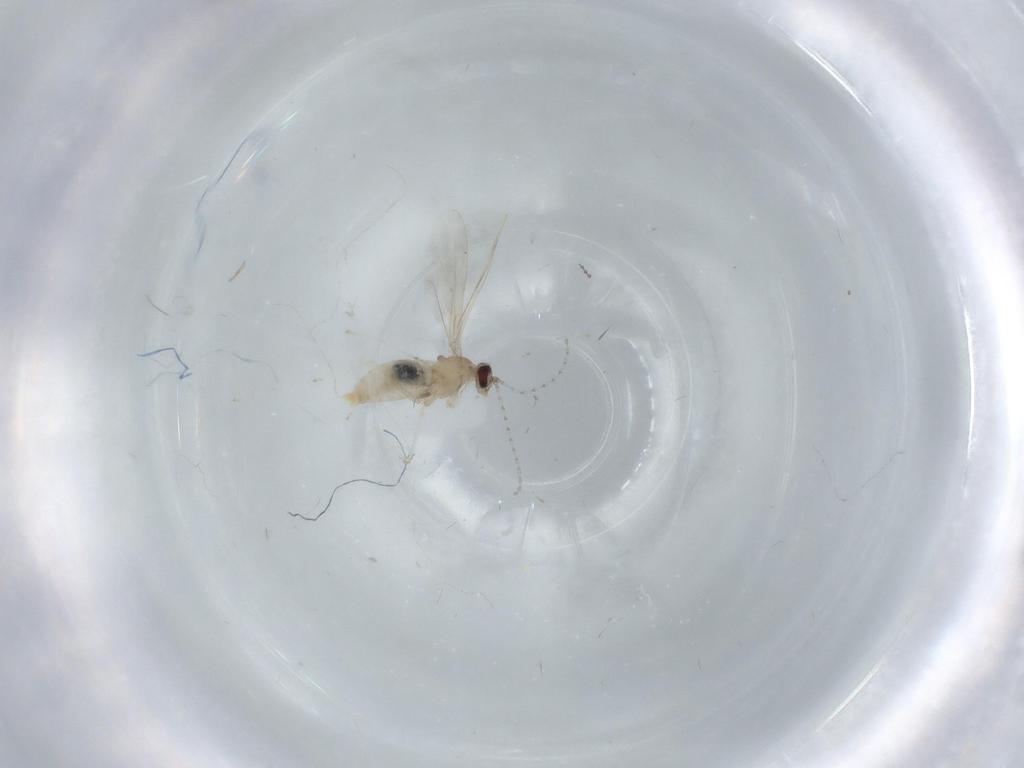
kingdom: Animalia
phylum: Arthropoda
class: Insecta
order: Diptera
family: Cecidomyiidae
